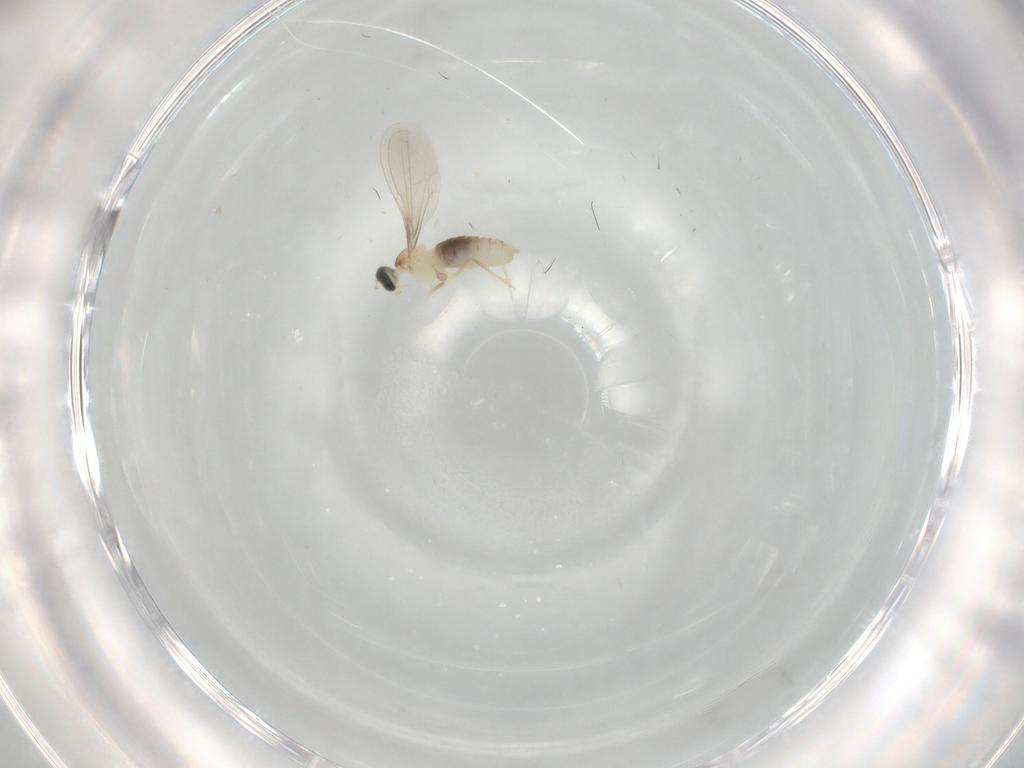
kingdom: Animalia
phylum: Arthropoda
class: Insecta
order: Diptera
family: Cecidomyiidae
